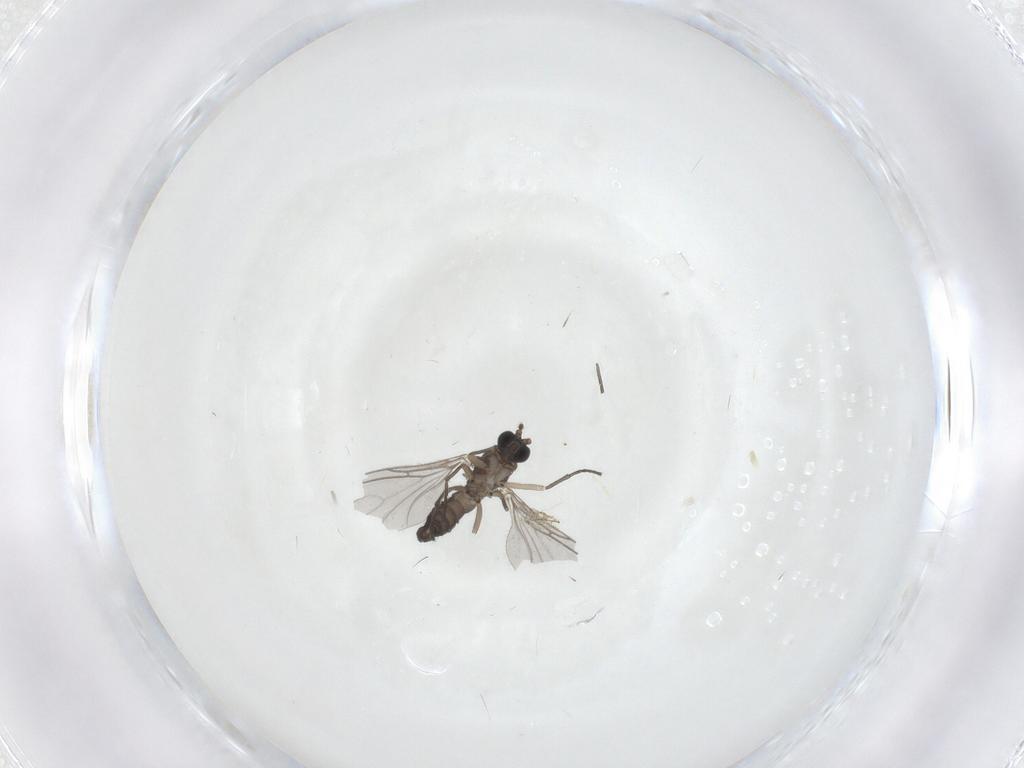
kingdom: Animalia
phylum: Arthropoda
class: Insecta
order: Diptera
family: Sciaridae
